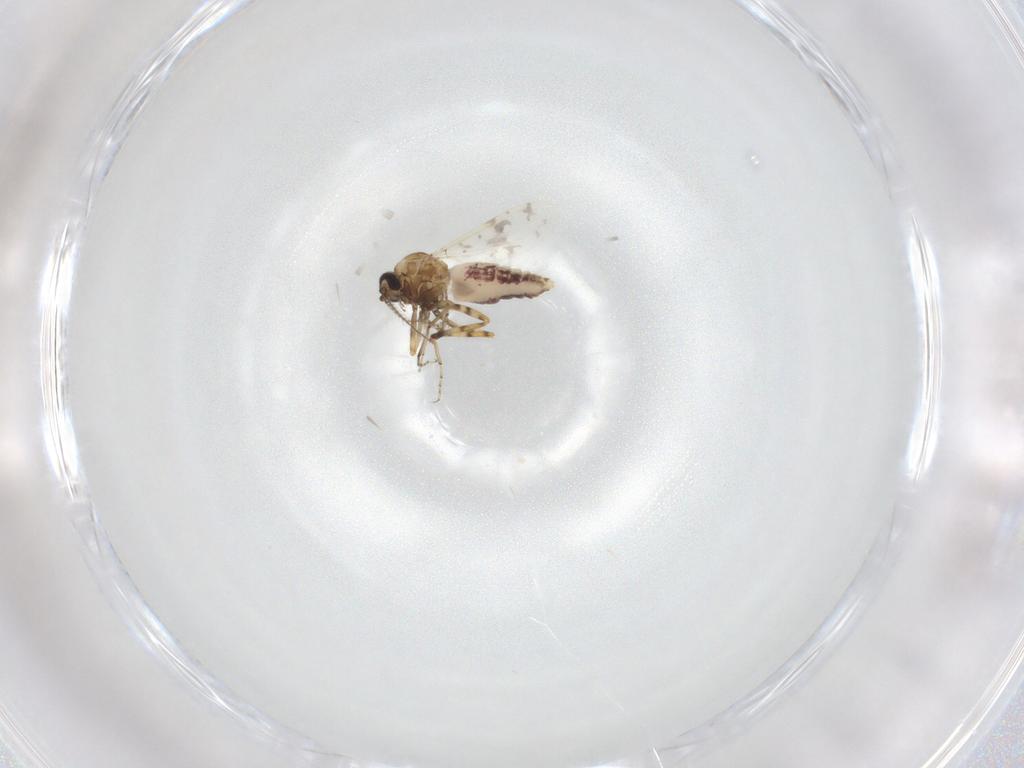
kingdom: Animalia
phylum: Arthropoda
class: Insecta
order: Diptera
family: Ceratopogonidae
